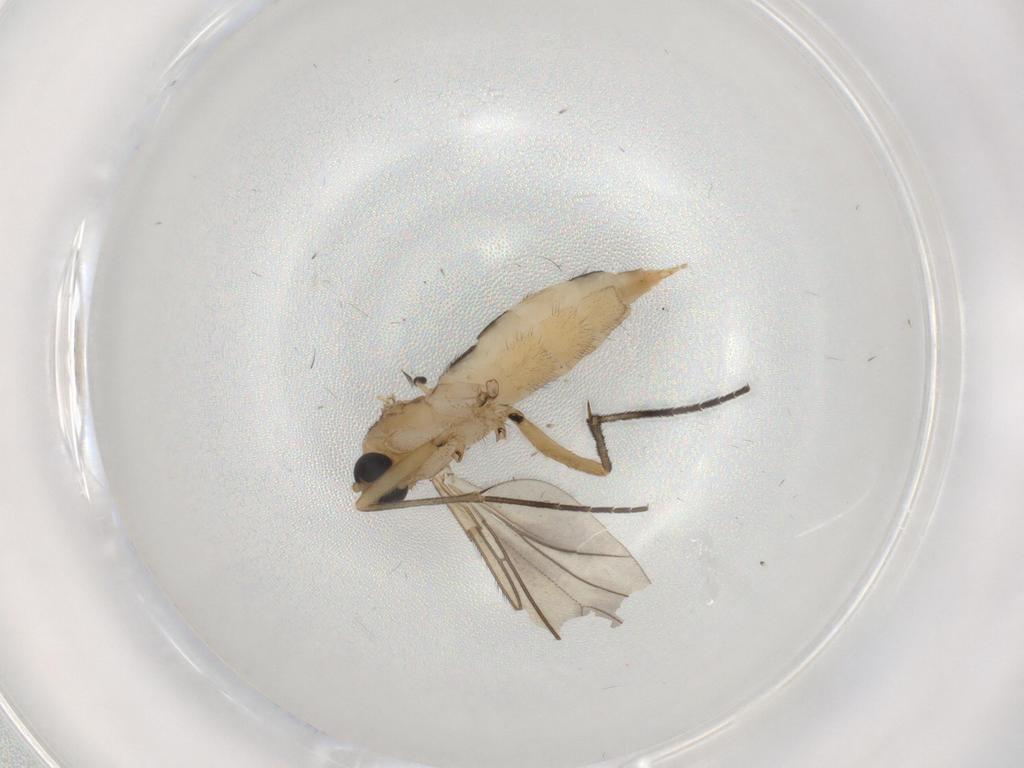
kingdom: Animalia
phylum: Arthropoda
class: Insecta
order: Diptera
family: Sciaridae
